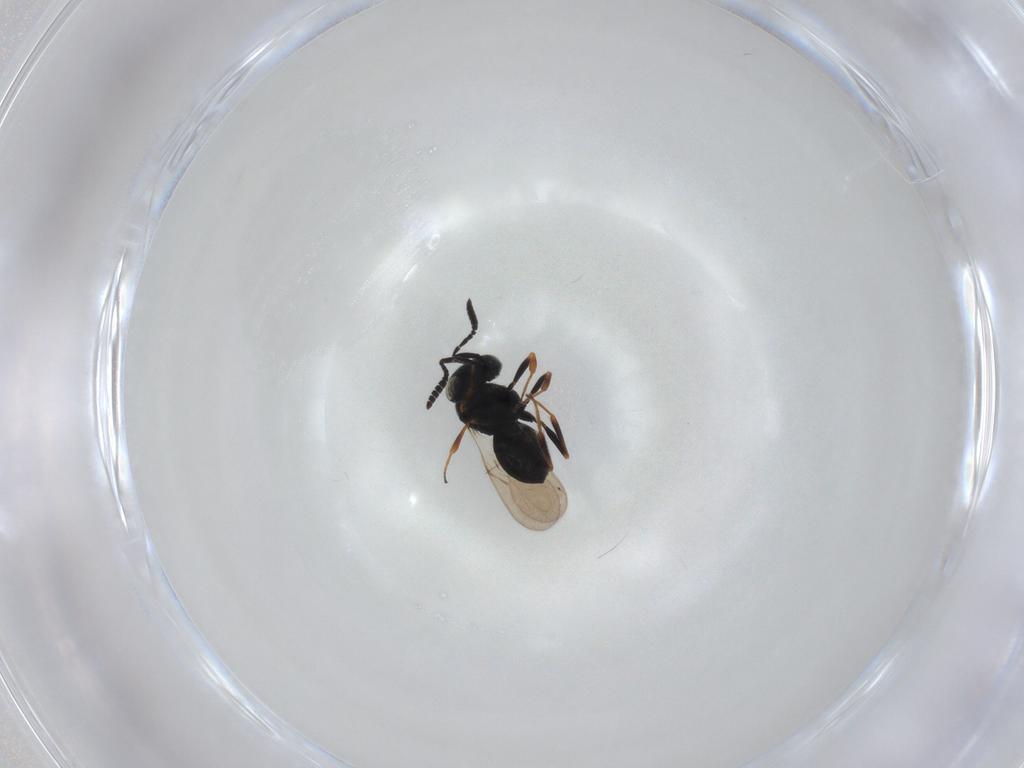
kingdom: Animalia
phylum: Arthropoda
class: Insecta
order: Hymenoptera
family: Scelionidae
